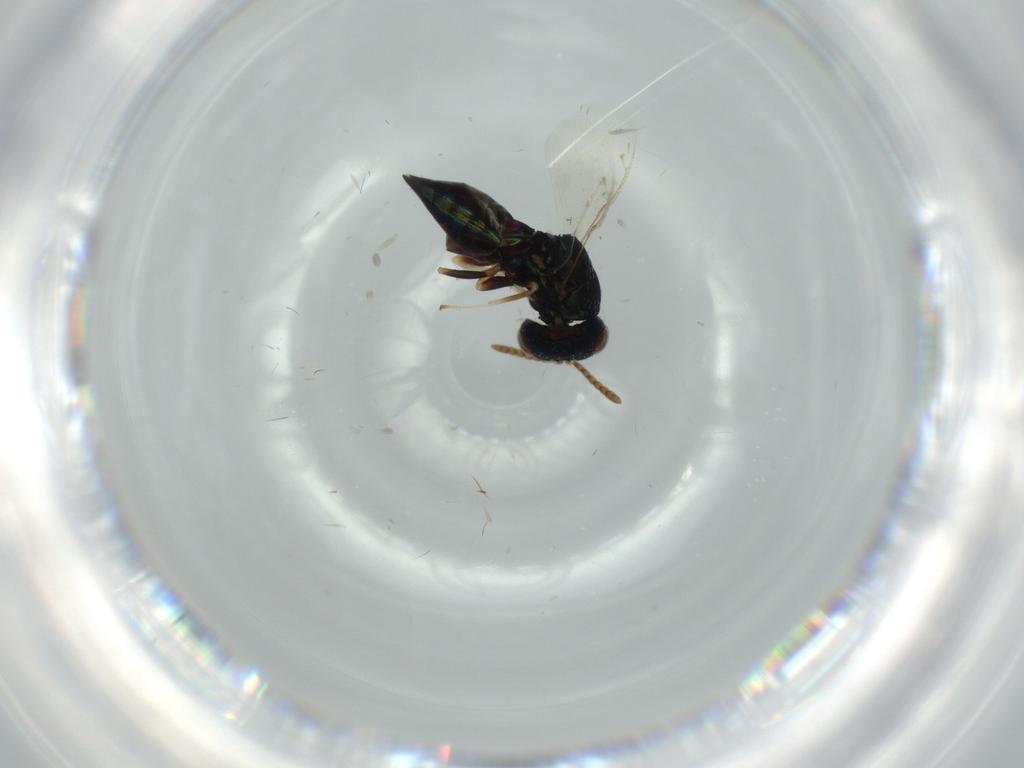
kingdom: Animalia
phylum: Arthropoda
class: Insecta
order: Hymenoptera
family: Pteromalidae
